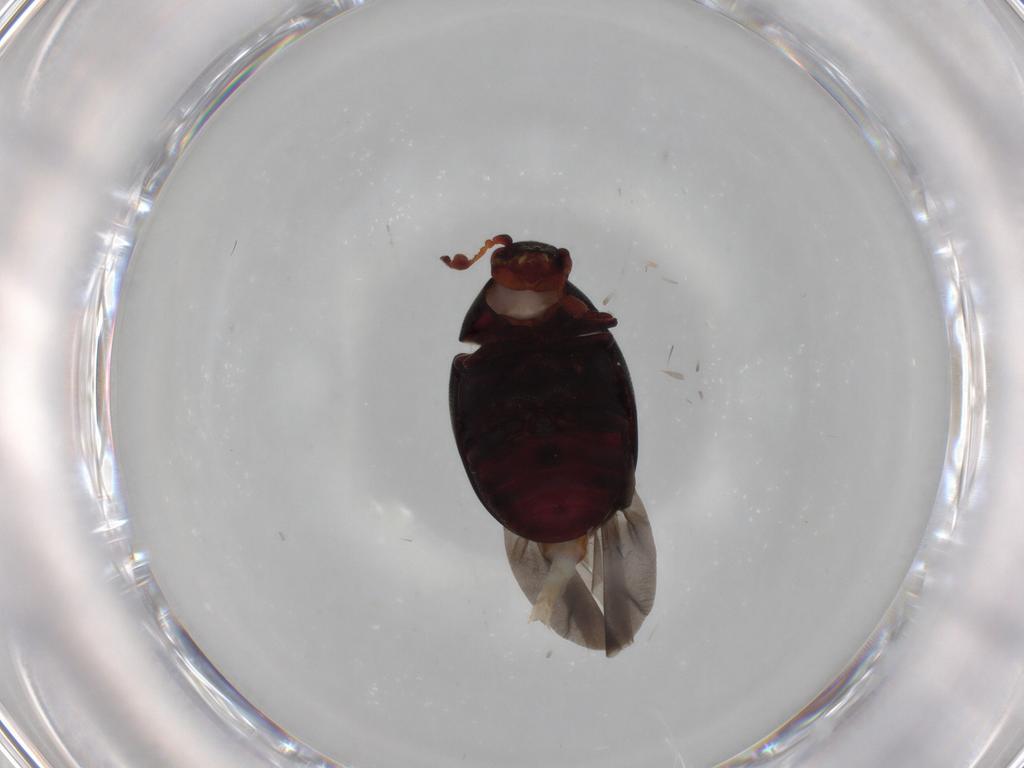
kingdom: Animalia
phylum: Arthropoda
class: Insecta
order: Coleoptera
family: Ptinidae
